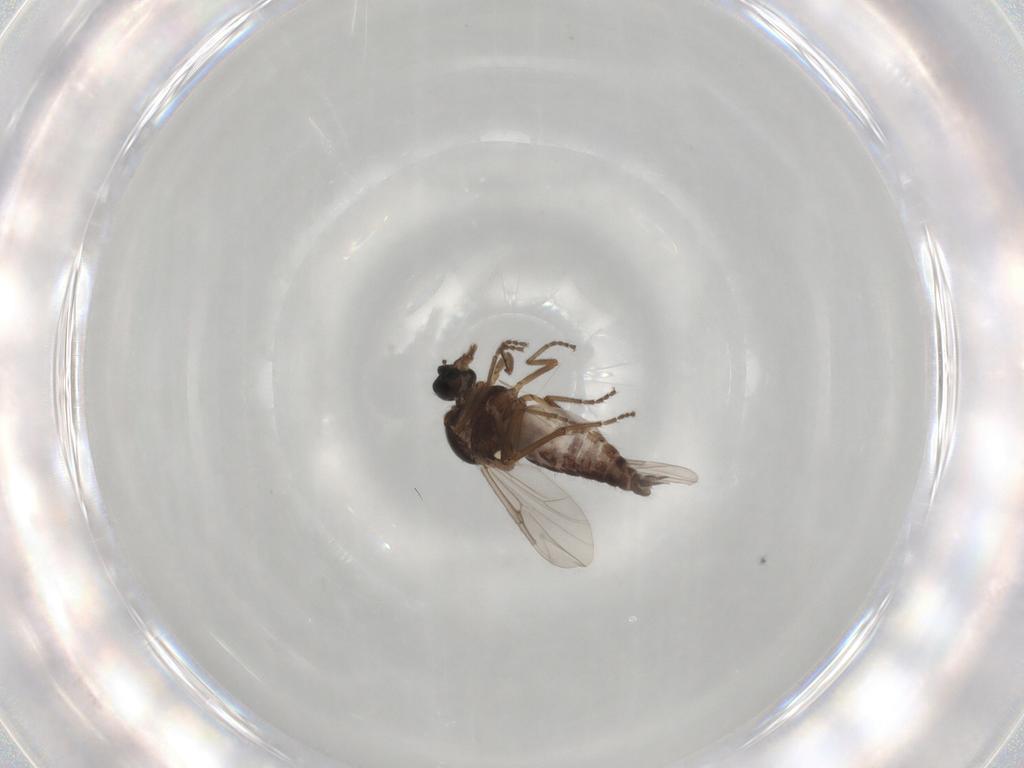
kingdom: Animalia
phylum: Arthropoda
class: Insecta
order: Diptera
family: Ceratopogonidae
